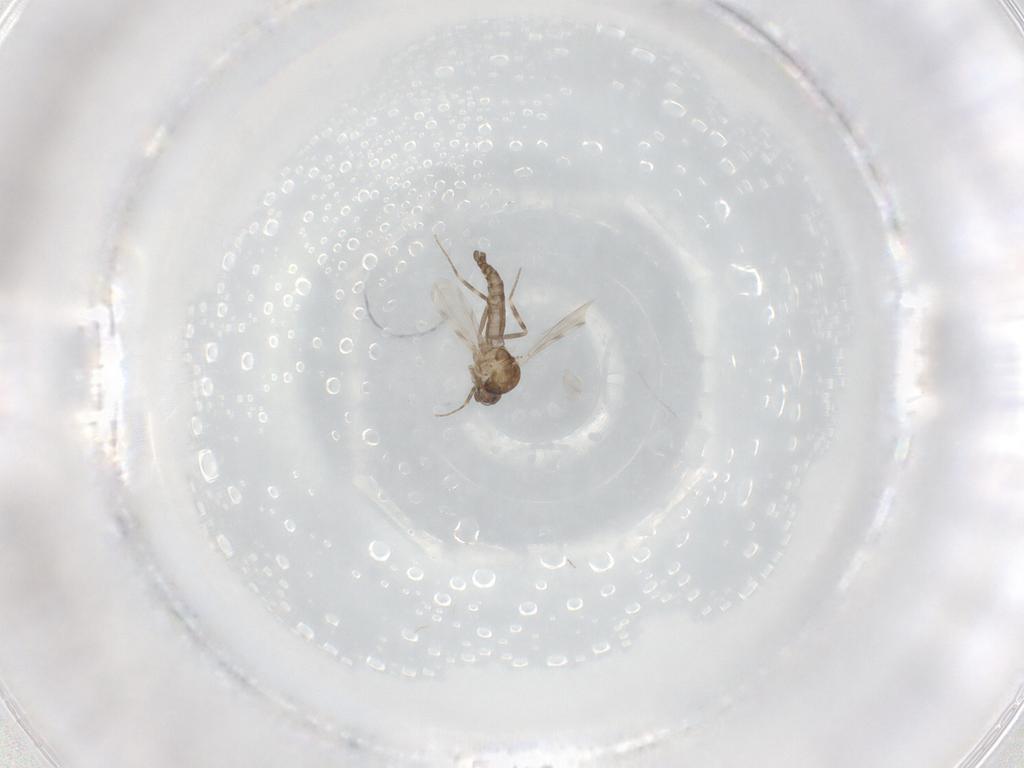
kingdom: Animalia
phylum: Arthropoda
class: Insecta
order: Diptera
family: Ceratopogonidae
